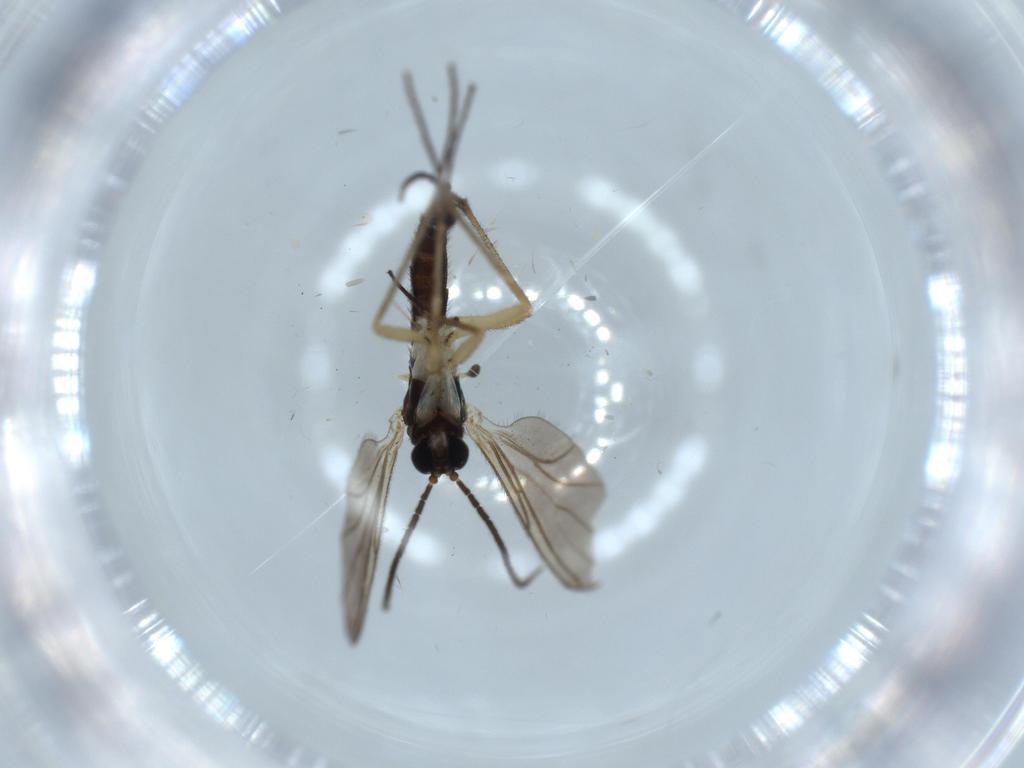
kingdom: Animalia
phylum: Arthropoda
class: Insecta
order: Diptera
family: Sciaridae
